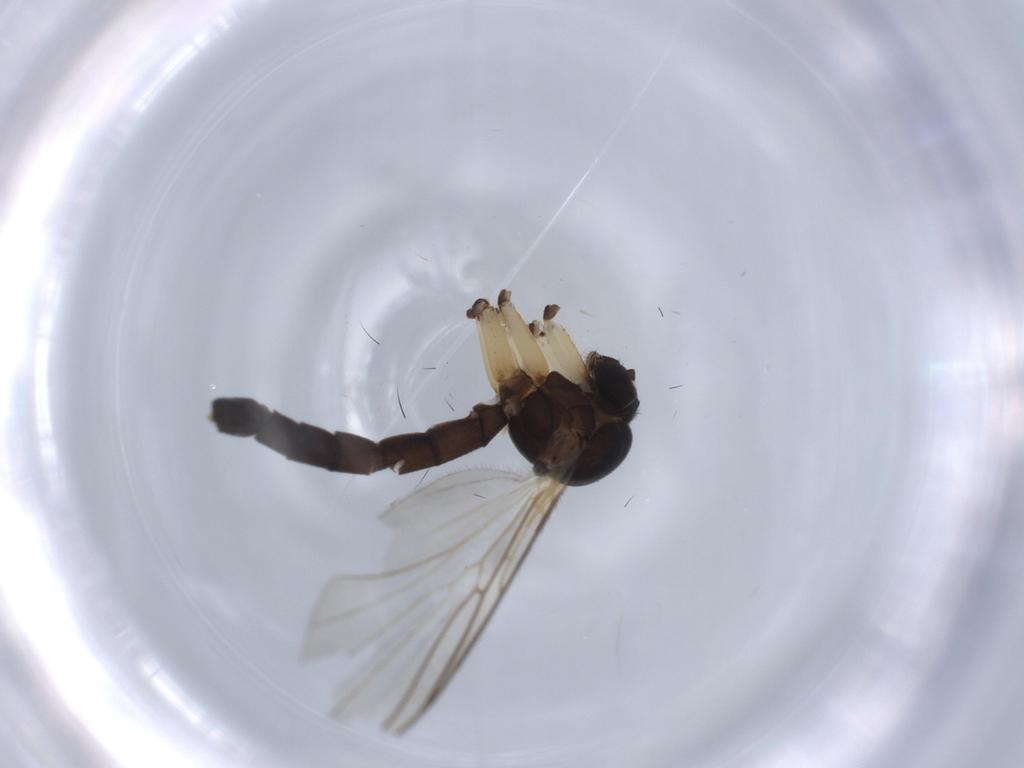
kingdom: Animalia
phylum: Arthropoda
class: Insecta
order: Diptera
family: Mycetophilidae
